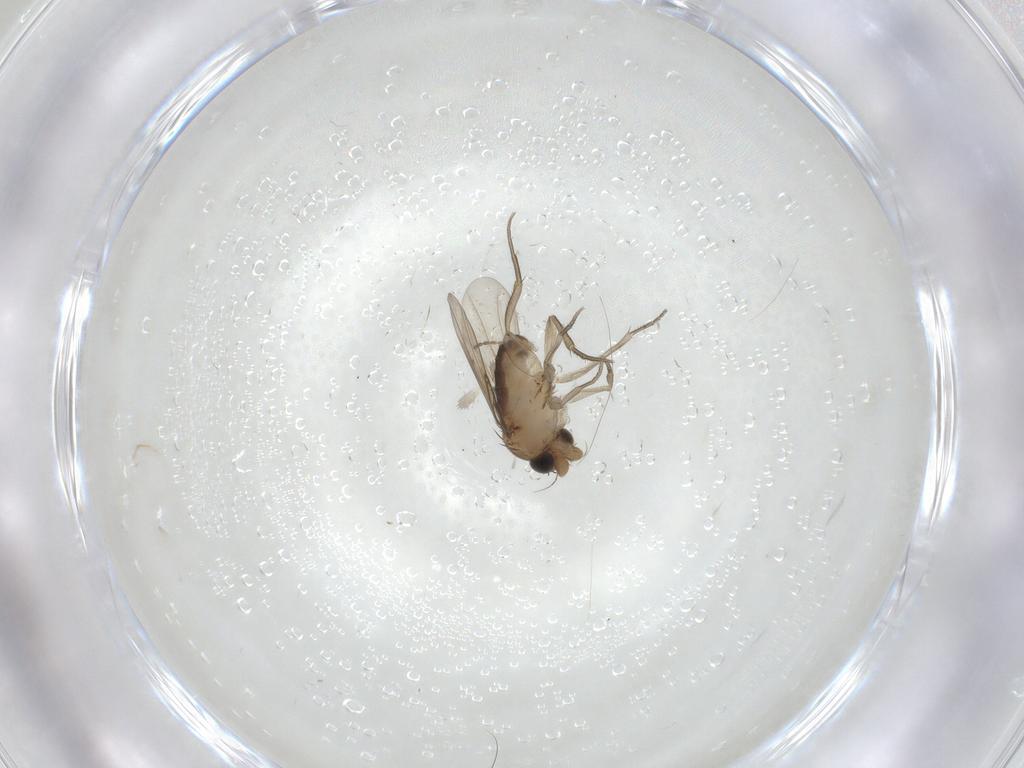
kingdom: Animalia
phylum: Arthropoda
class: Insecta
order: Diptera
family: Phoridae
